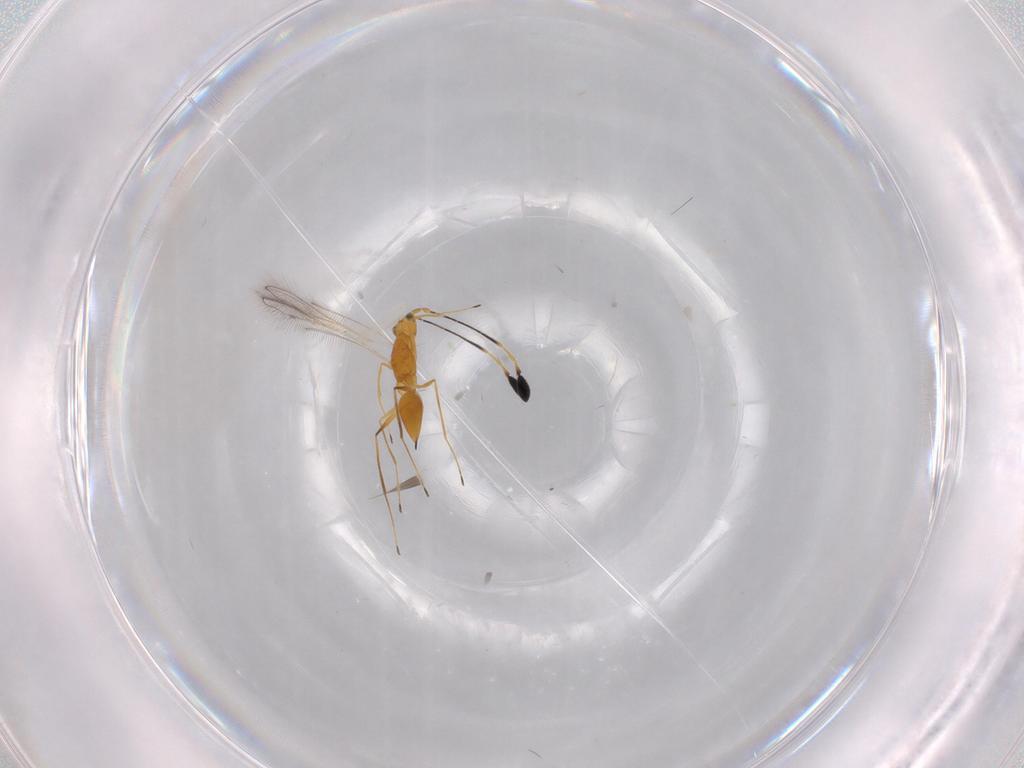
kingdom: Animalia
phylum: Arthropoda
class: Insecta
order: Hymenoptera
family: Mymaridae
